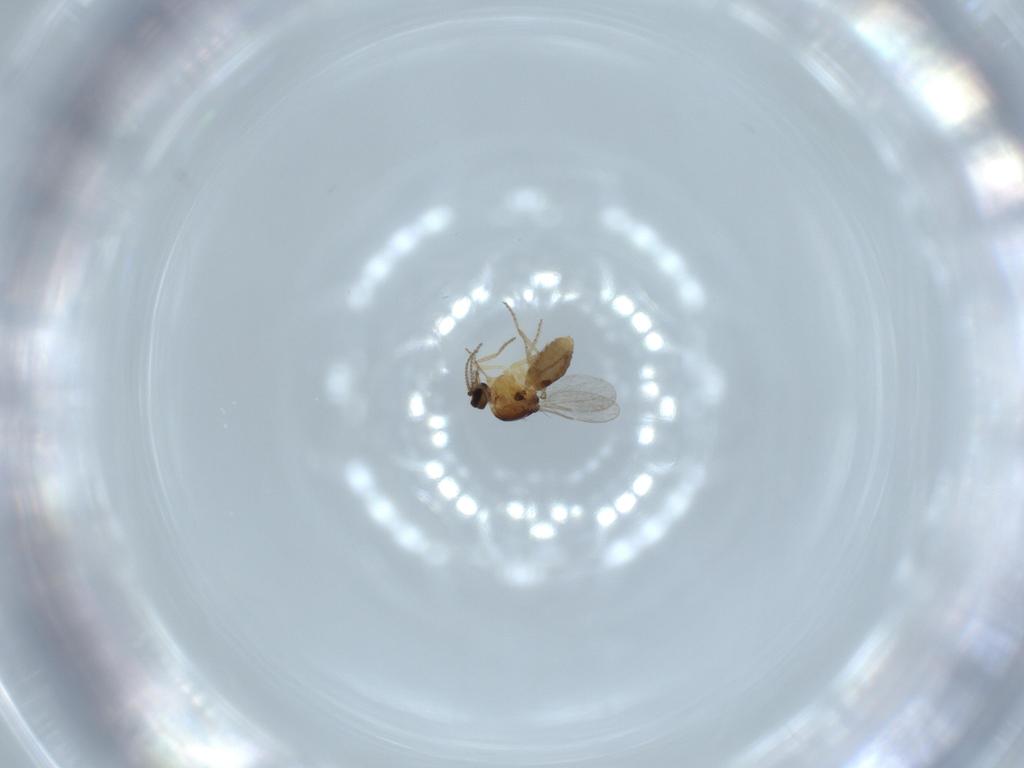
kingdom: Animalia
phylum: Arthropoda
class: Insecta
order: Diptera
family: Ceratopogonidae
